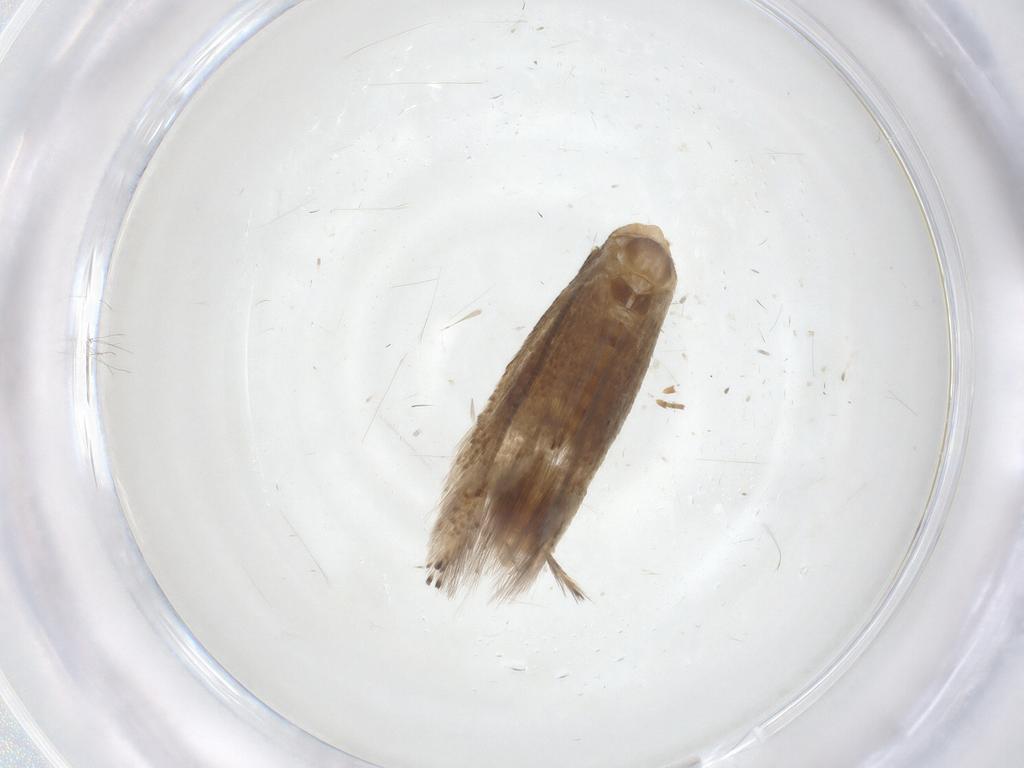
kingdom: Animalia
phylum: Arthropoda
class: Insecta
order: Lepidoptera
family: Bucculatricidae
